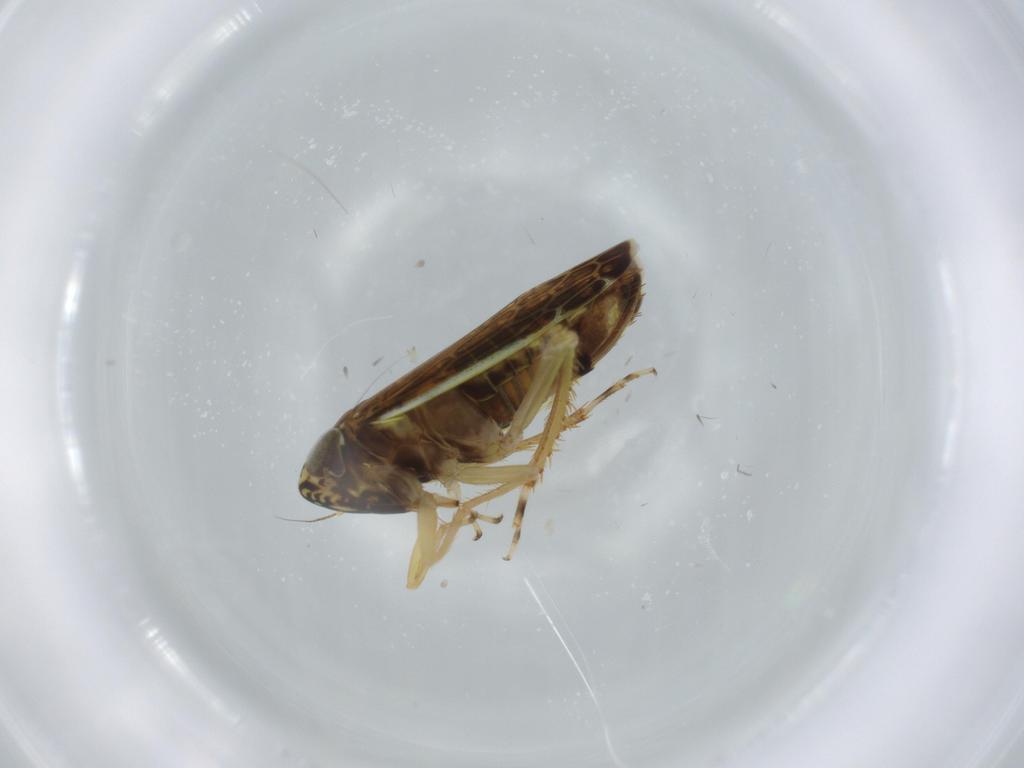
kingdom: Animalia
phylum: Arthropoda
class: Insecta
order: Hemiptera
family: Cicadellidae
